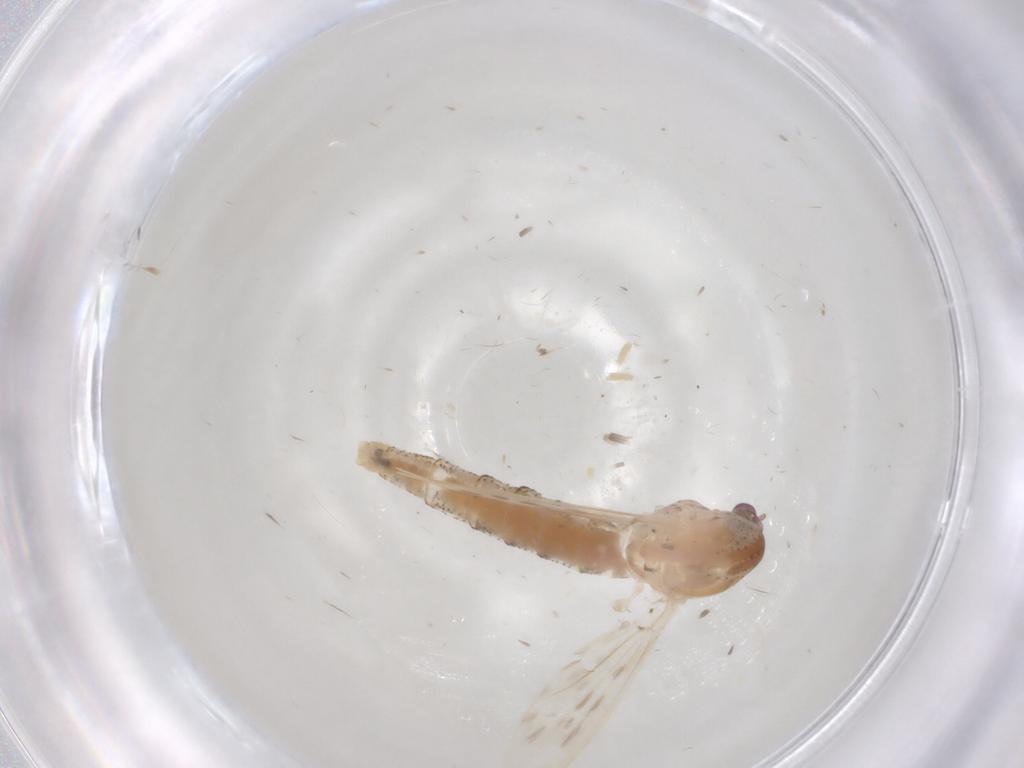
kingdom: Animalia
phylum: Arthropoda
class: Insecta
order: Diptera
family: Chaoboridae
